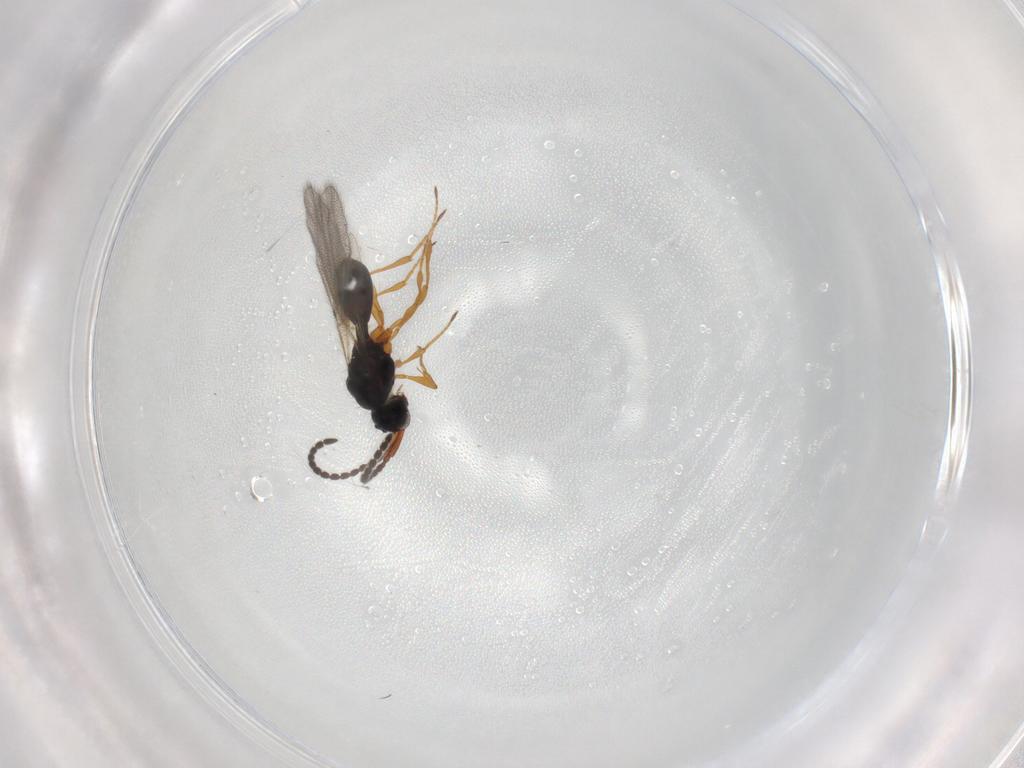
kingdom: Animalia
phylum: Arthropoda
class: Insecta
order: Hymenoptera
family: Diapriidae
